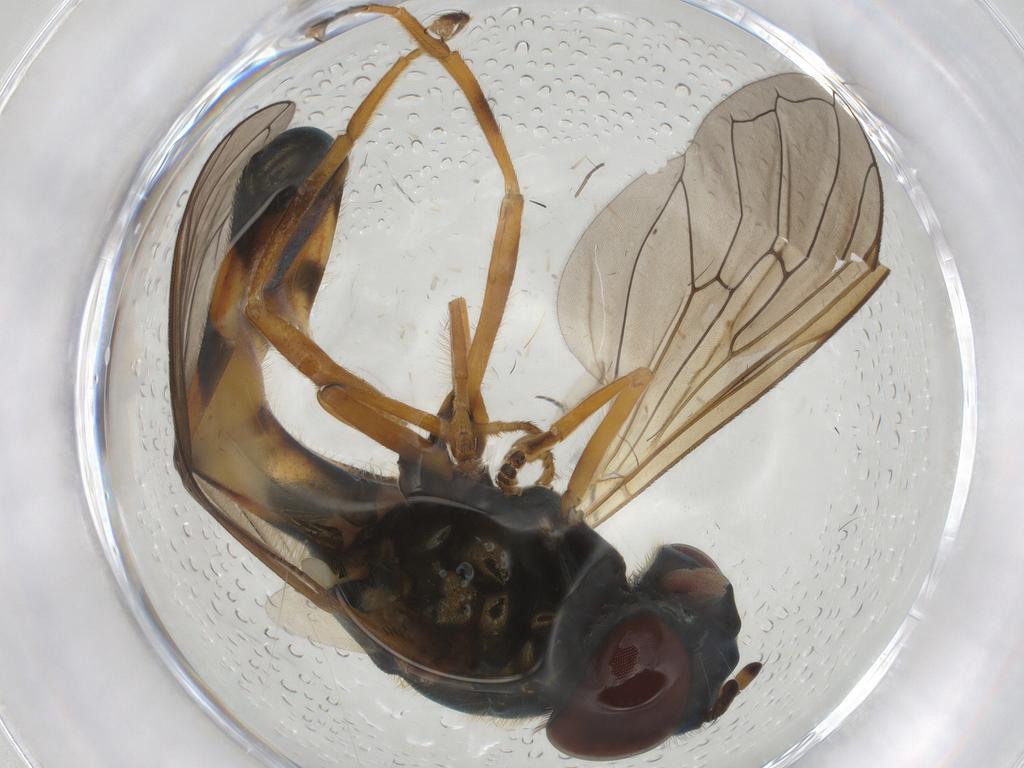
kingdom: Animalia
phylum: Arthropoda
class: Insecta
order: Diptera
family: Syrphidae
